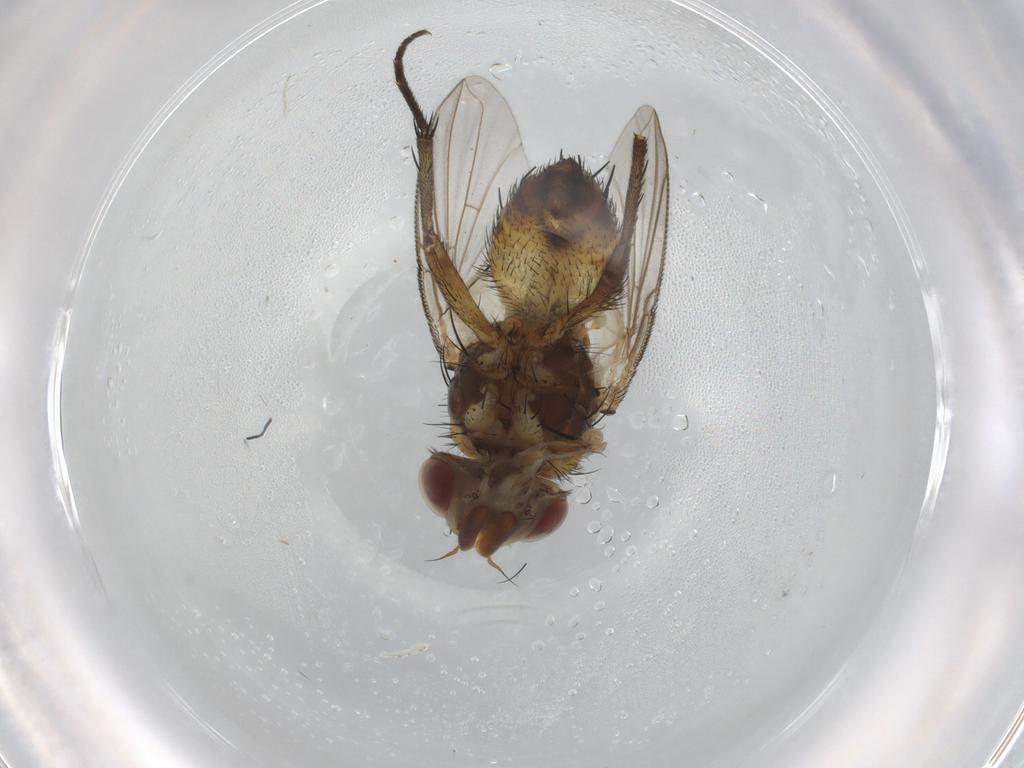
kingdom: Animalia
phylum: Arthropoda
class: Insecta
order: Diptera
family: Tachinidae
